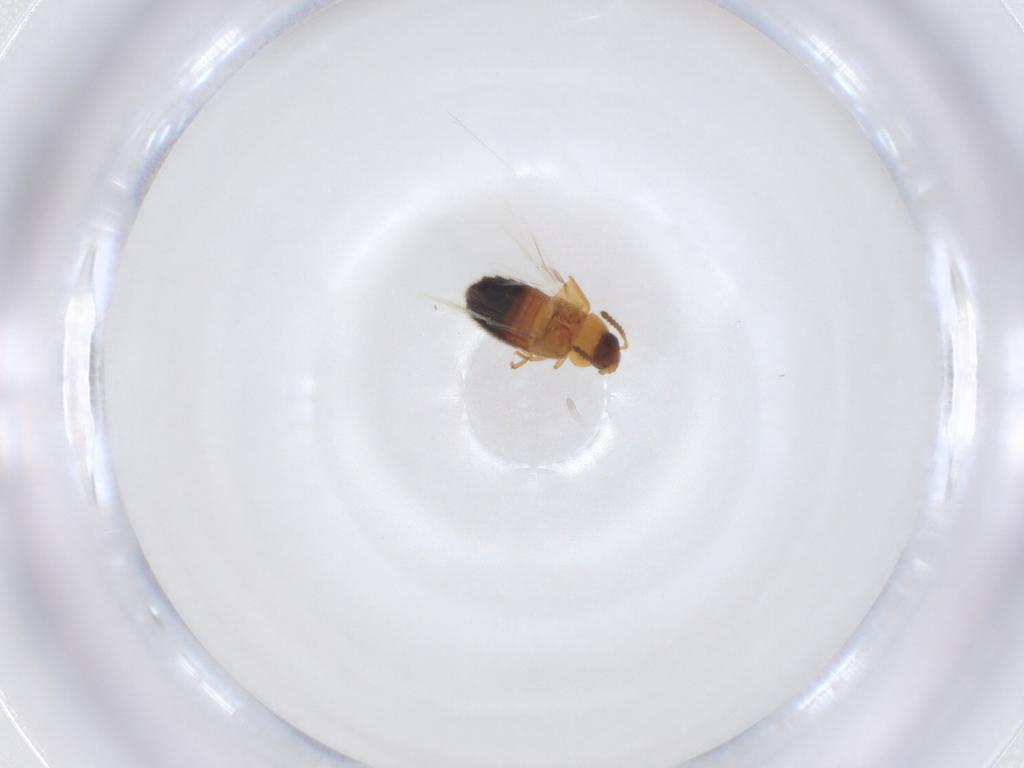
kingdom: Animalia
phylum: Arthropoda
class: Insecta
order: Coleoptera
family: Staphylinidae
